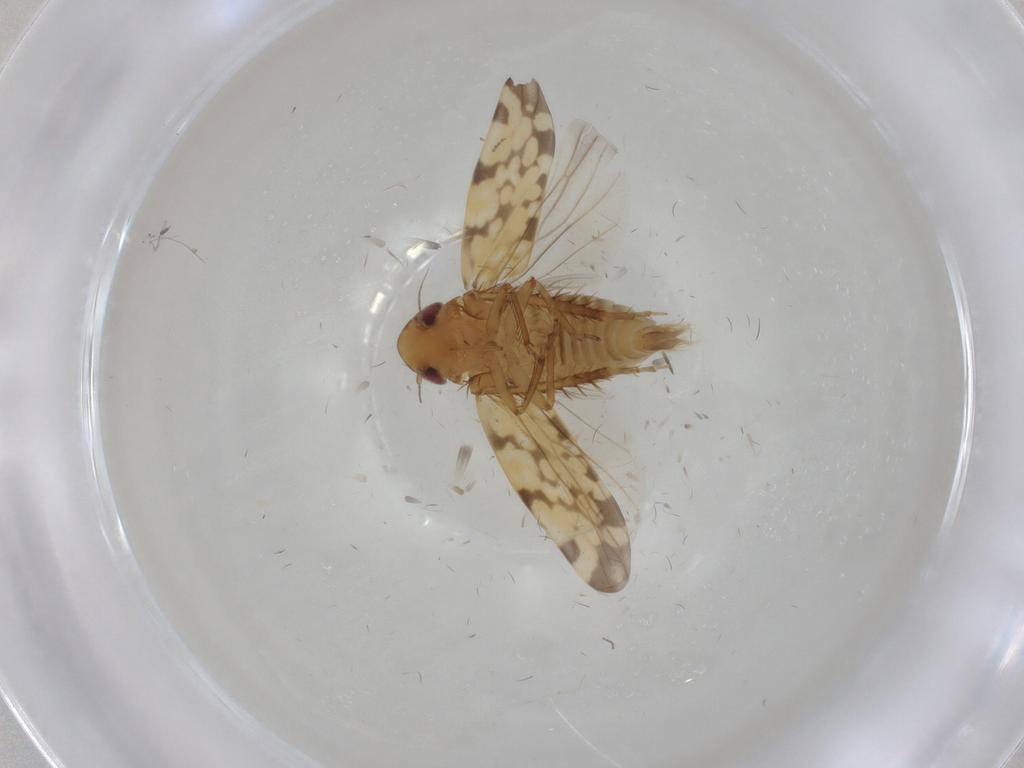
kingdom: Animalia
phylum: Arthropoda
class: Insecta
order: Hemiptera
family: Cicadellidae
